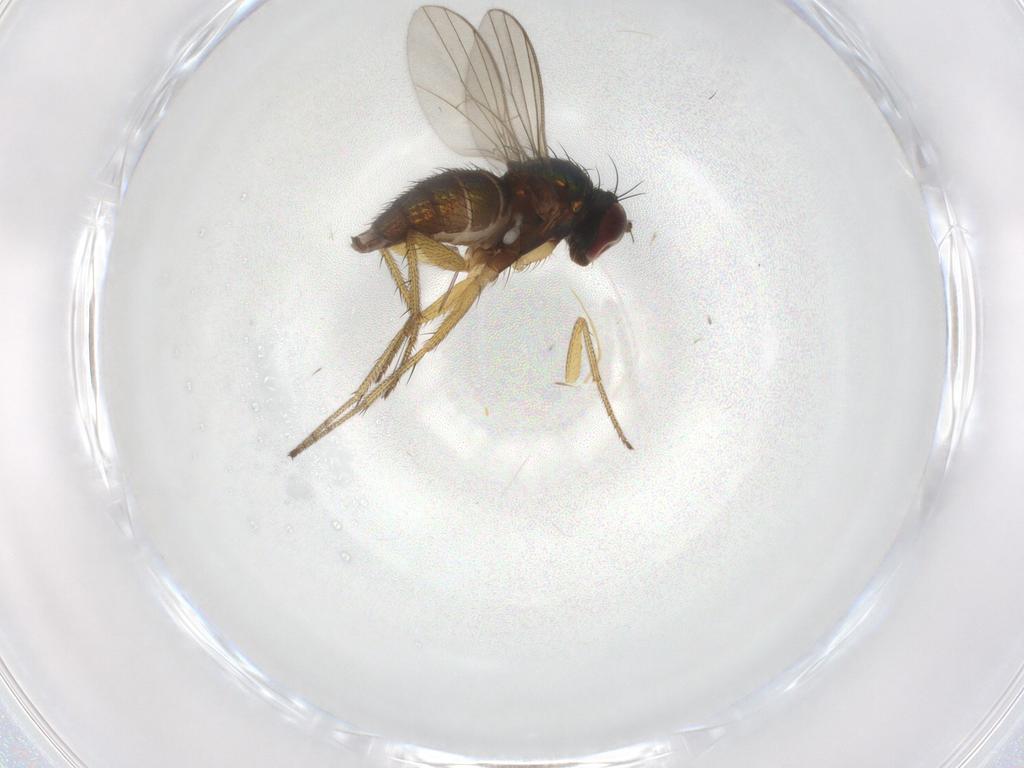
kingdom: Animalia
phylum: Arthropoda
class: Insecta
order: Diptera
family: Dolichopodidae
